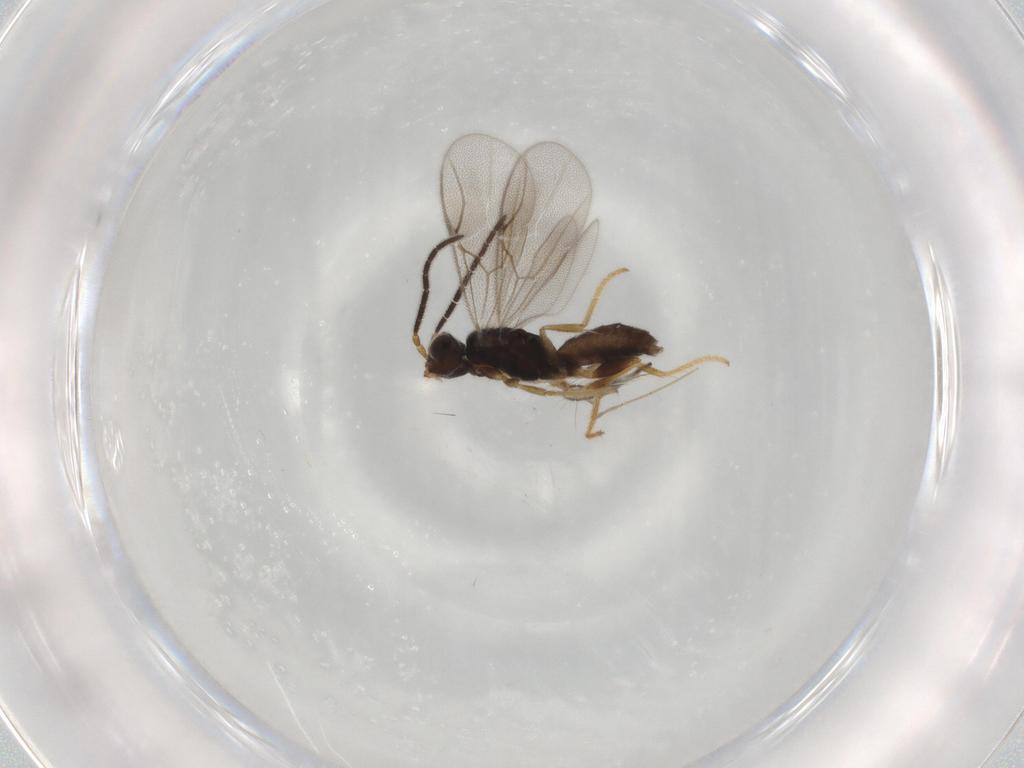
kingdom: Animalia
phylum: Arthropoda
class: Insecta
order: Hymenoptera
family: Dryinidae
